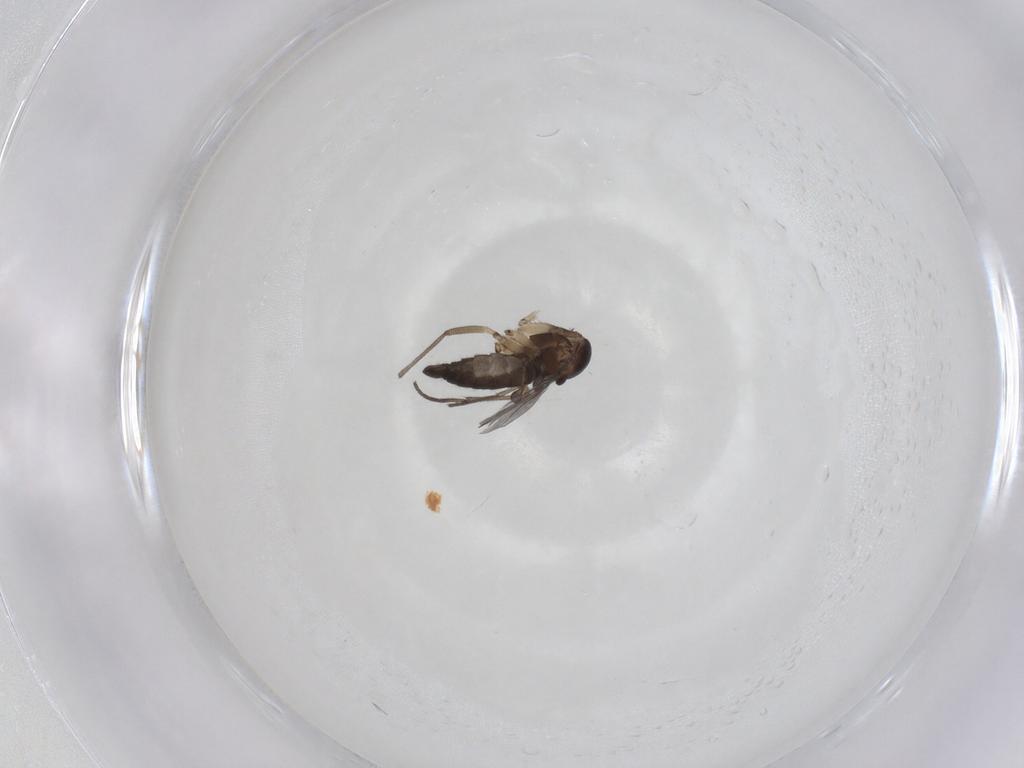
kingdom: Animalia
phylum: Arthropoda
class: Insecta
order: Diptera
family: Sciaridae
